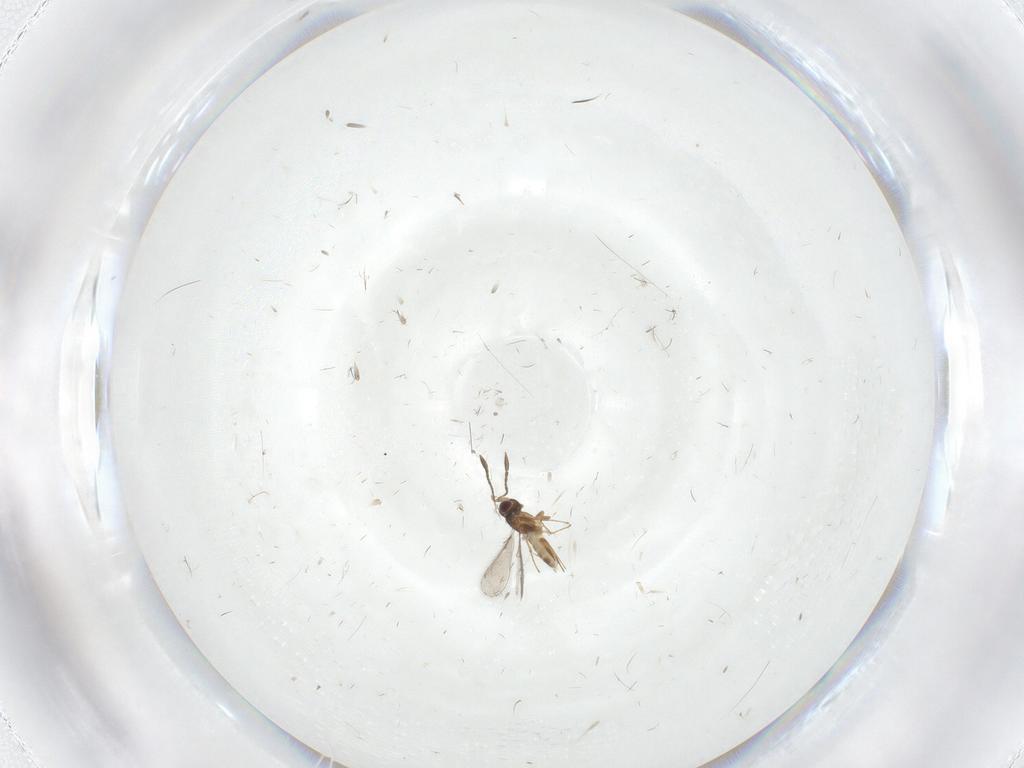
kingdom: Animalia
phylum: Arthropoda
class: Insecta
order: Hymenoptera
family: Mymaridae
